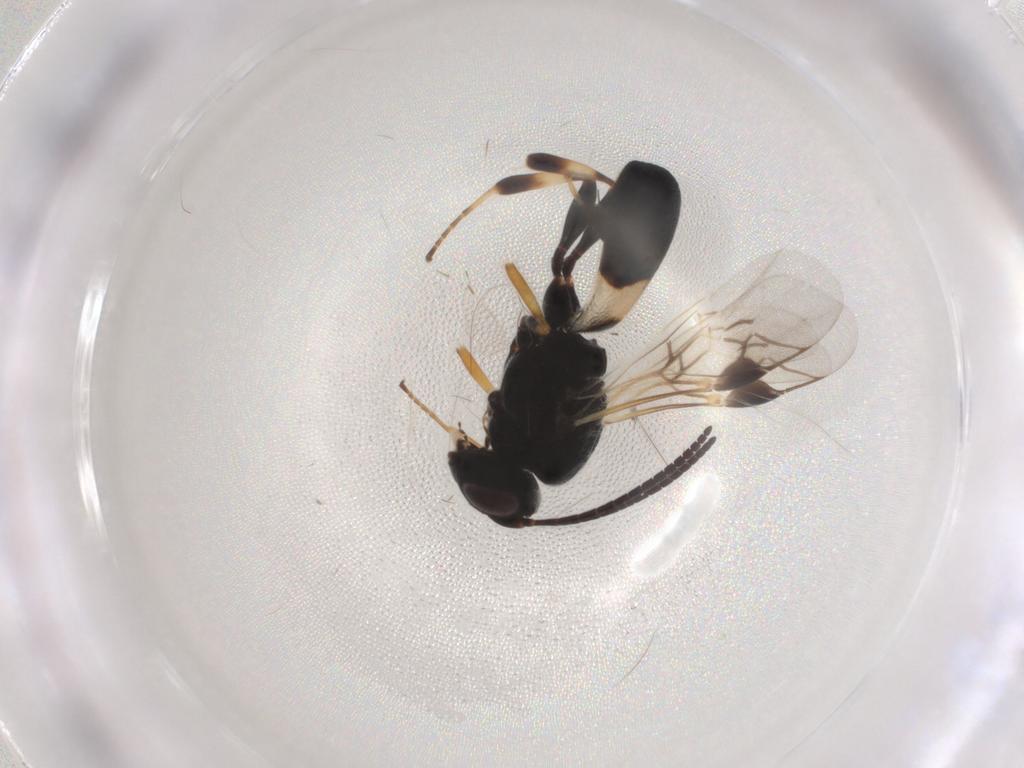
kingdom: Animalia
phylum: Arthropoda
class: Insecta
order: Hymenoptera
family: Braconidae
